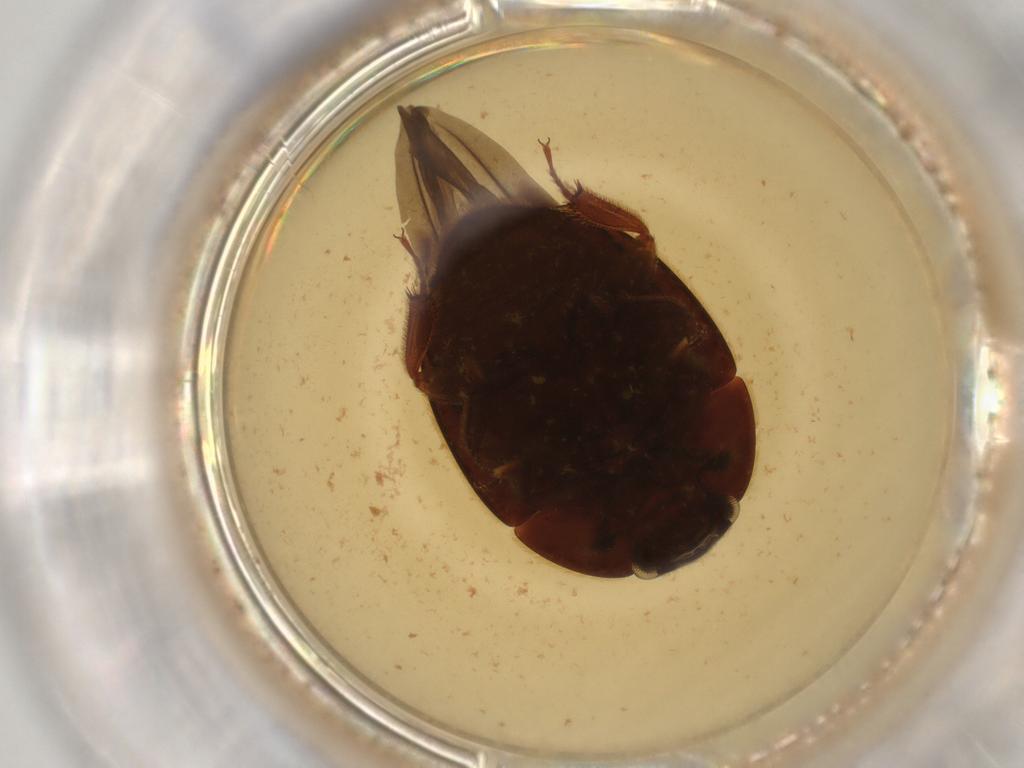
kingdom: Animalia
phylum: Arthropoda
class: Insecta
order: Coleoptera
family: Nitidulidae
